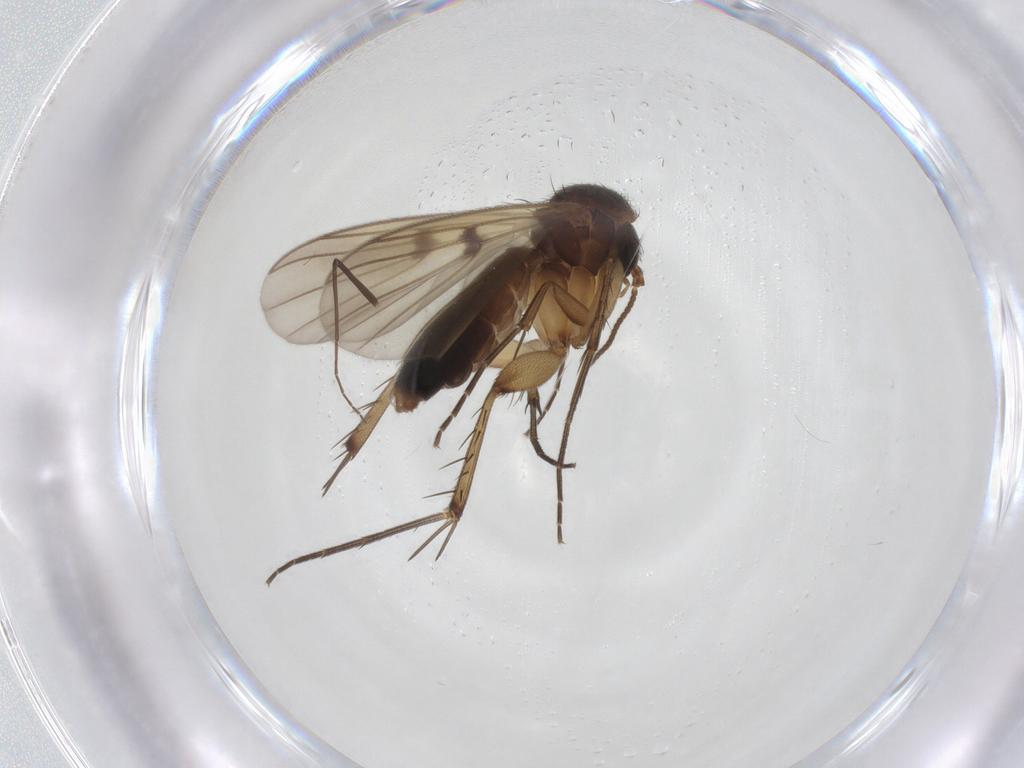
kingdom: Animalia
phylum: Arthropoda
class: Insecta
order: Diptera
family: Chironomidae
